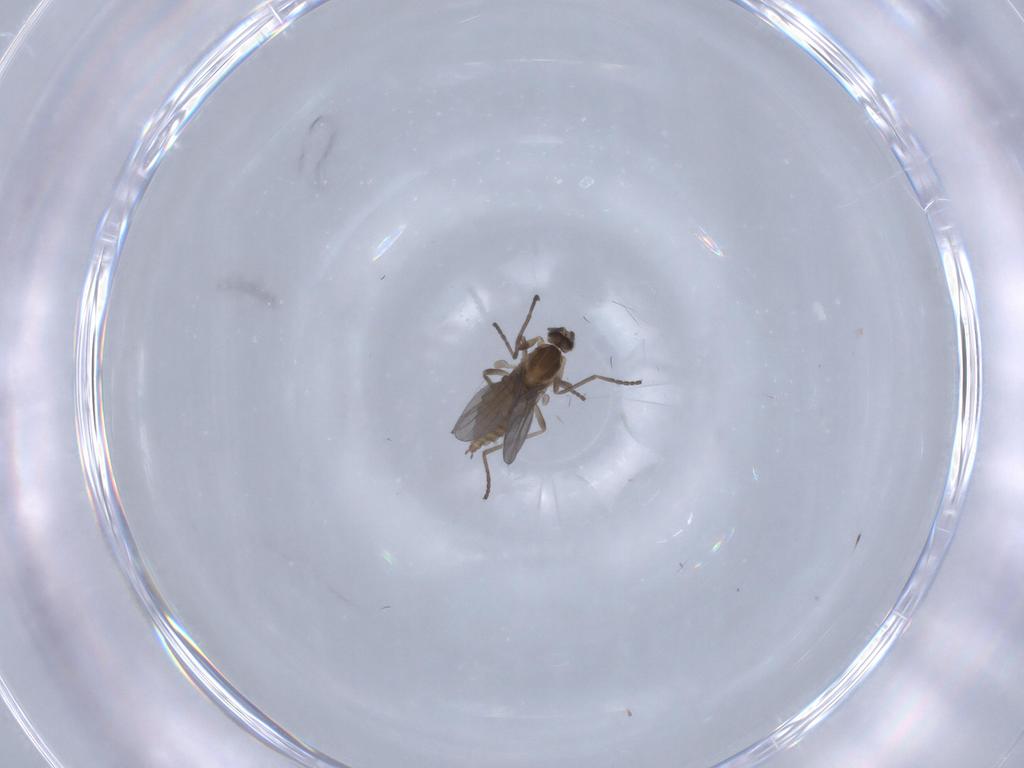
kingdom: Animalia
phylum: Arthropoda
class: Insecta
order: Diptera
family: Cecidomyiidae
